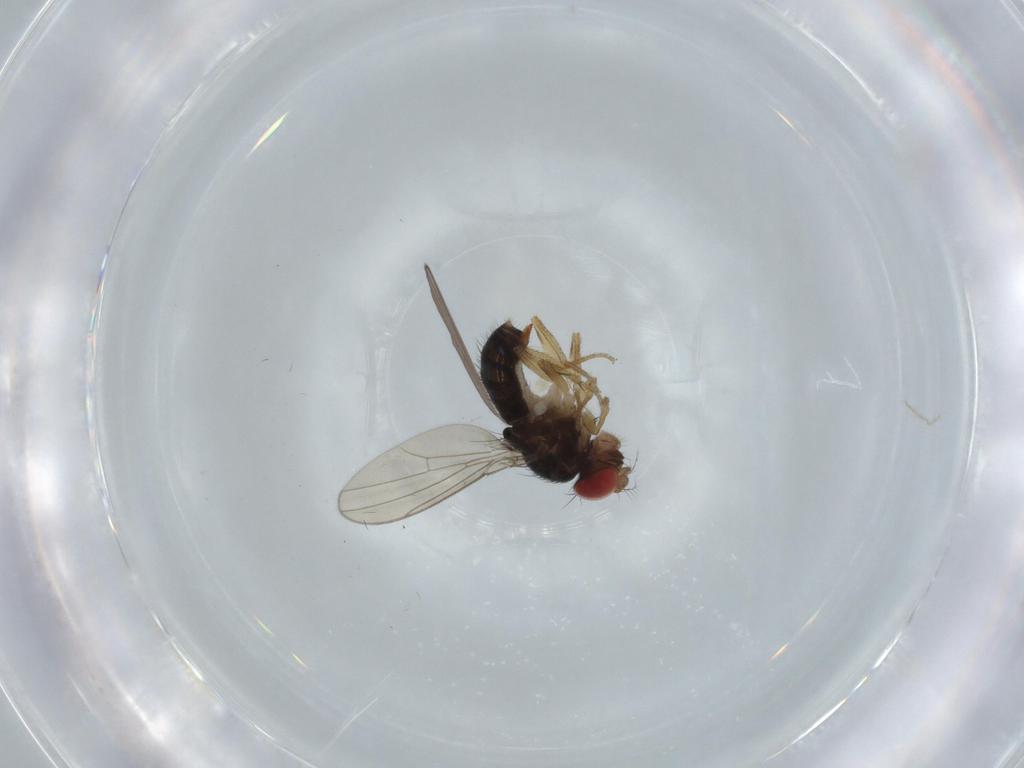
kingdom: Animalia
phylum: Arthropoda
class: Insecta
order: Diptera
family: Drosophilidae
